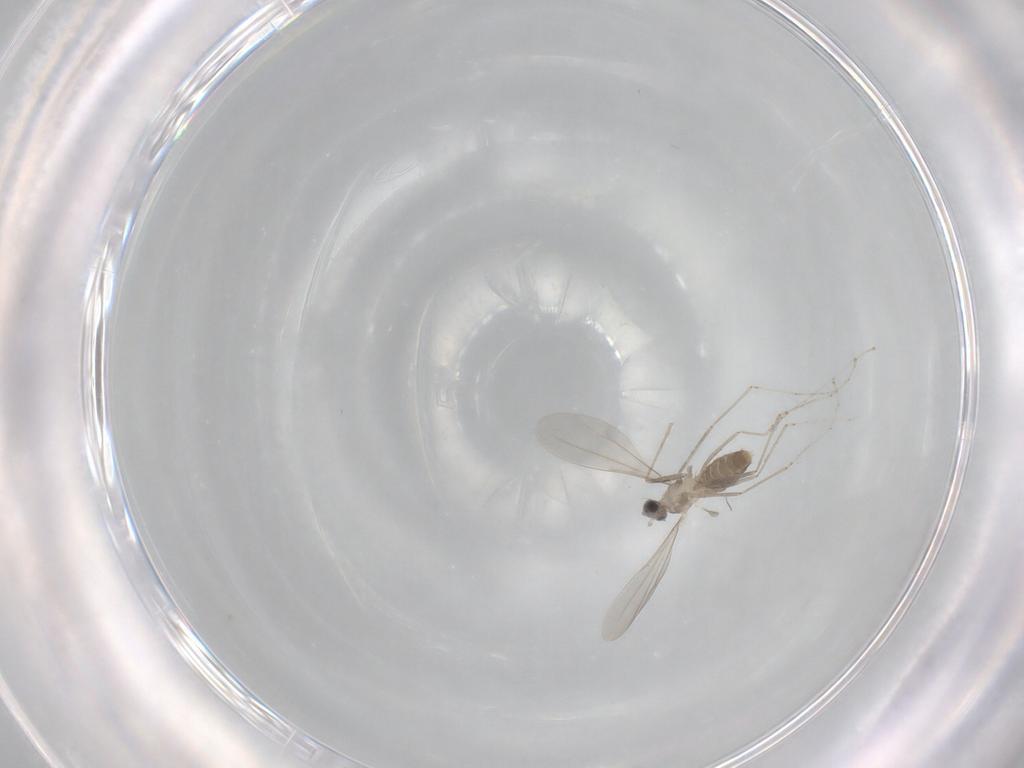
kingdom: Animalia
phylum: Arthropoda
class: Insecta
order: Diptera
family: Cecidomyiidae
